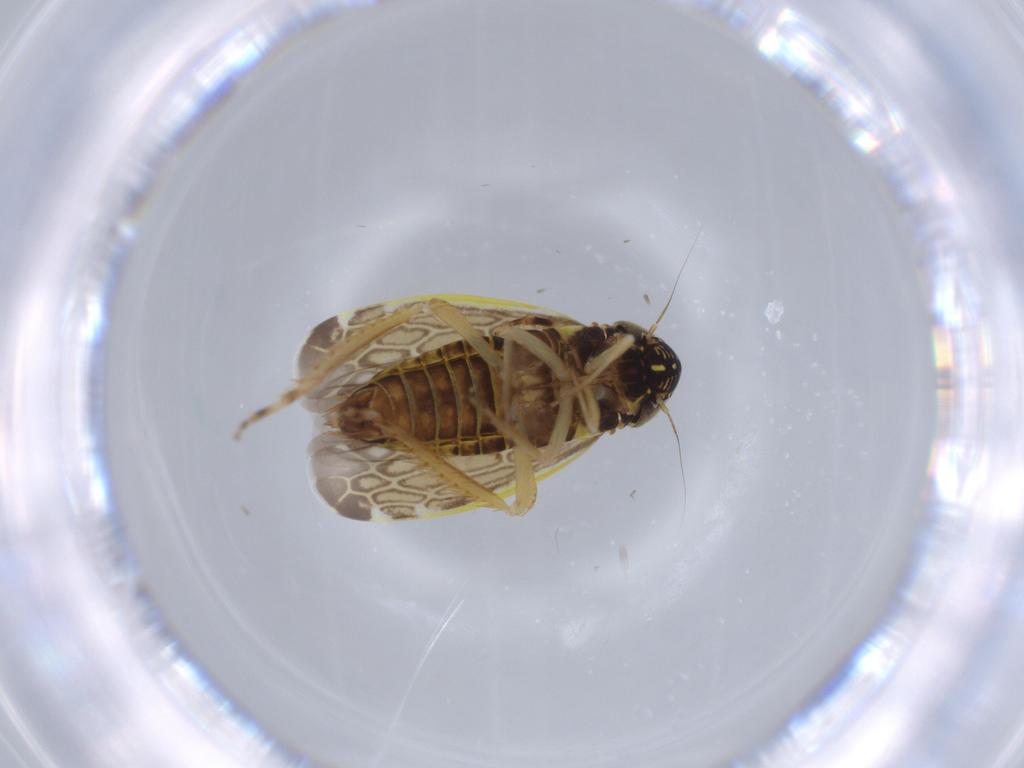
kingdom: Animalia
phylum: Arthropoda
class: Insecta
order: Hemiptera
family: Cicadellidae
